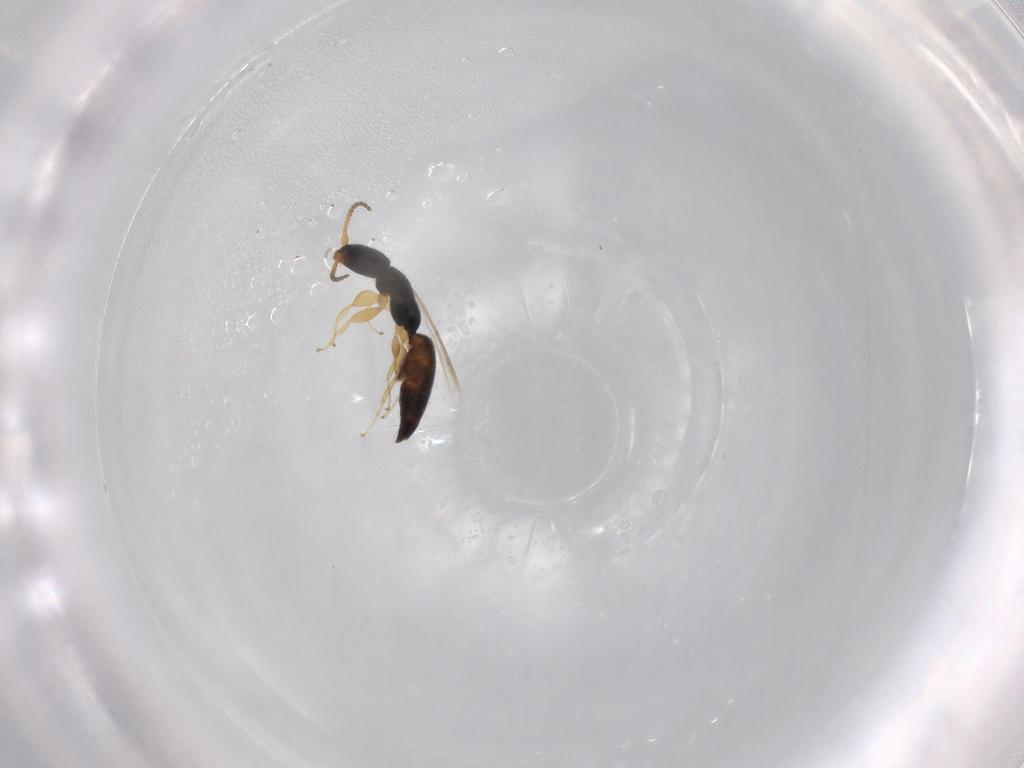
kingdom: Animalia
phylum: Arthropoda
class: Insecta
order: Hymenoptera
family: Bethylidae
